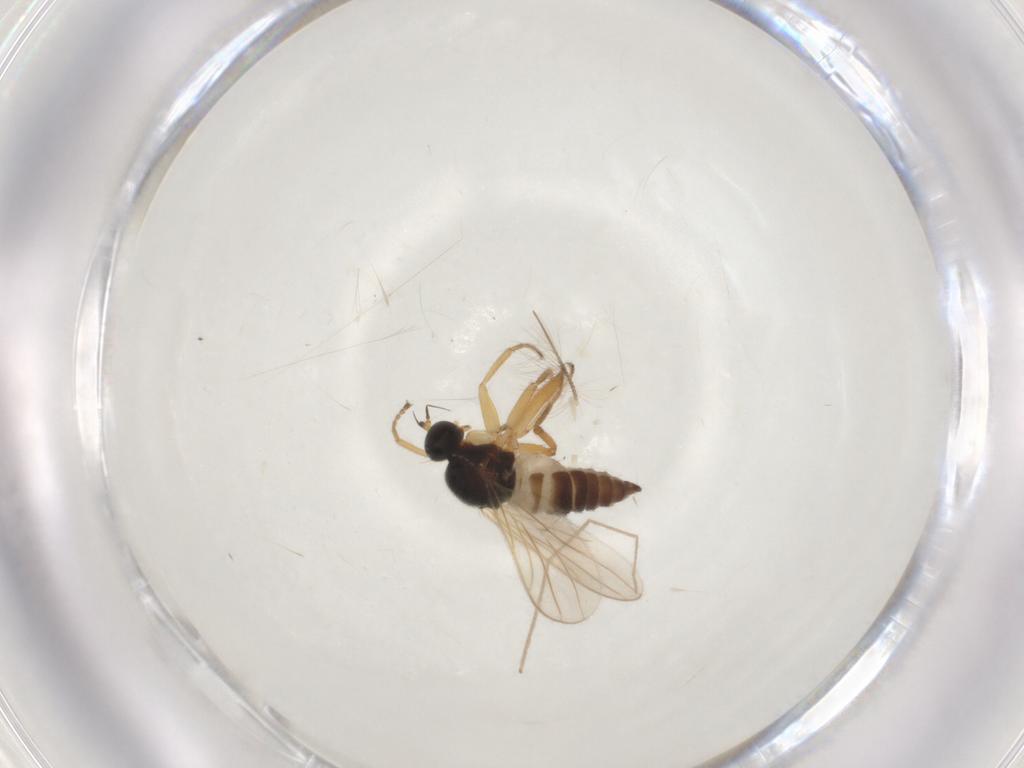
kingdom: Animalia
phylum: Arthropoda
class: Insecta
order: Diptera
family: Hybotidae
